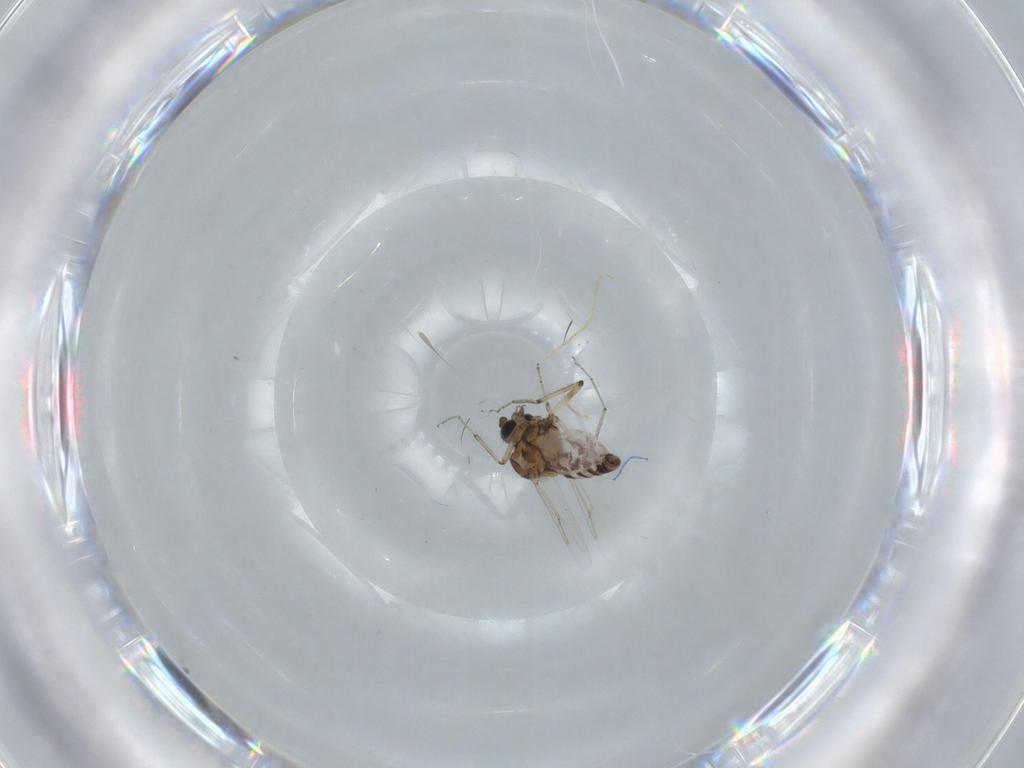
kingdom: Animalia
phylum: Arthropoda
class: Insecta
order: Diptera
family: Ceratopogonidae
